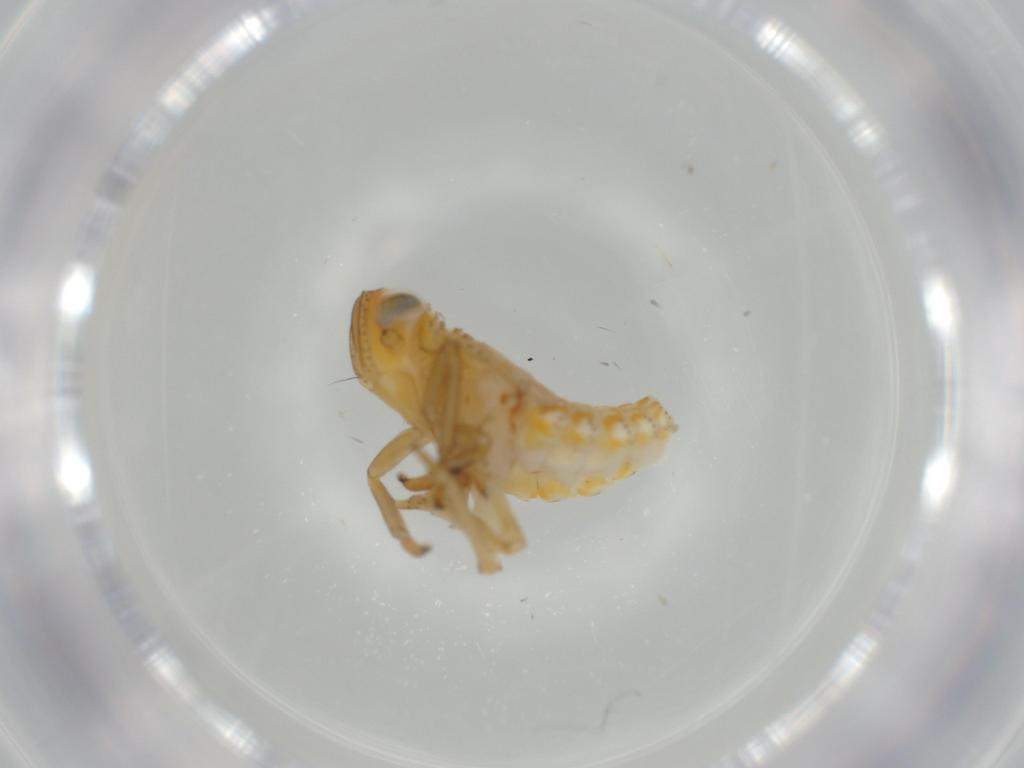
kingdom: Animalia
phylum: Arthropoda
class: Insecta
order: Hemiptera
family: Issidae
